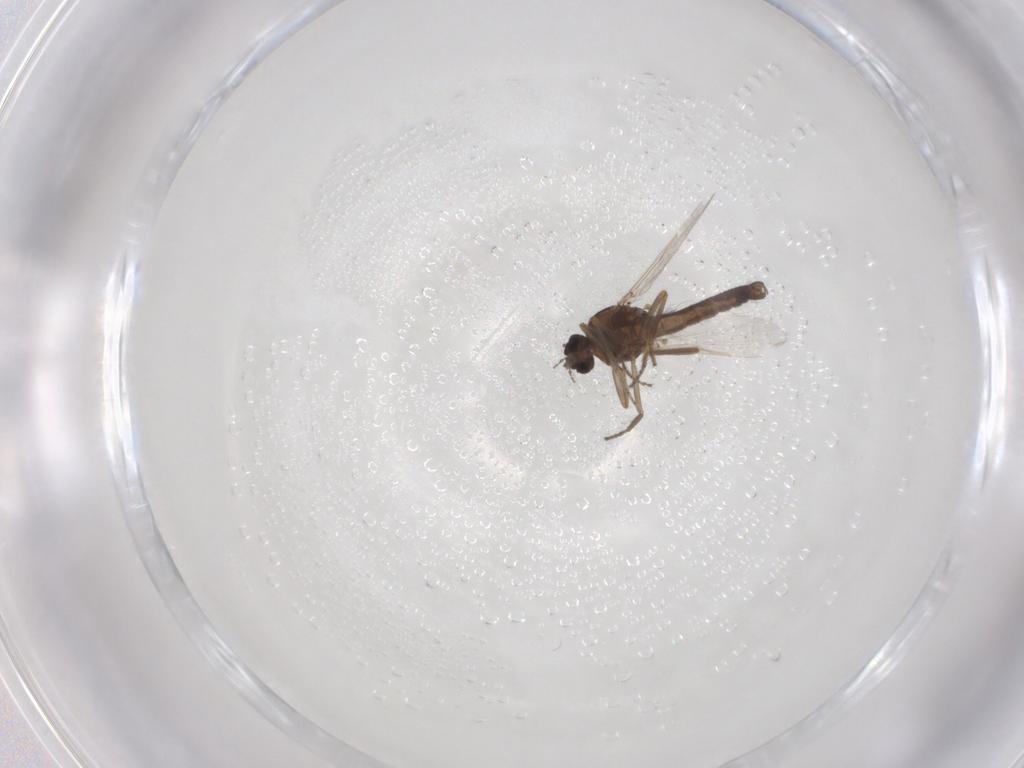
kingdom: Animalia
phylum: Arthropoda
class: Insecta
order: Diptera
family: Ceratopogonidae
